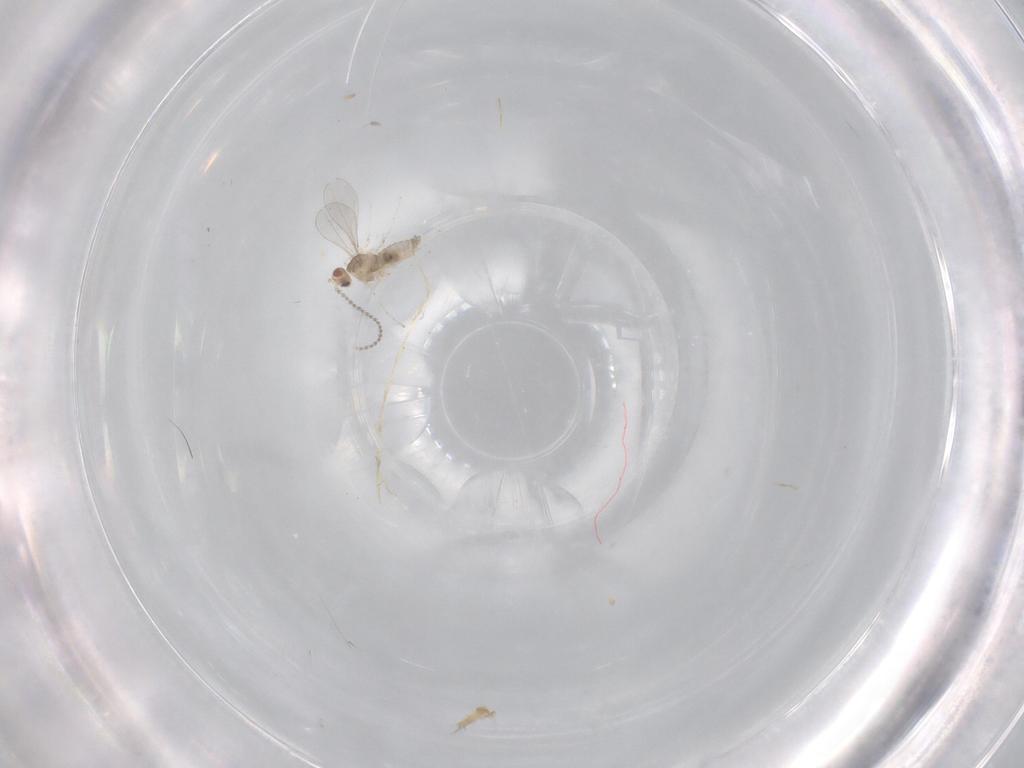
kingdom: Animalia
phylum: Arthropoda
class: Insecta
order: Diptera
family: Cecidomyiidae
